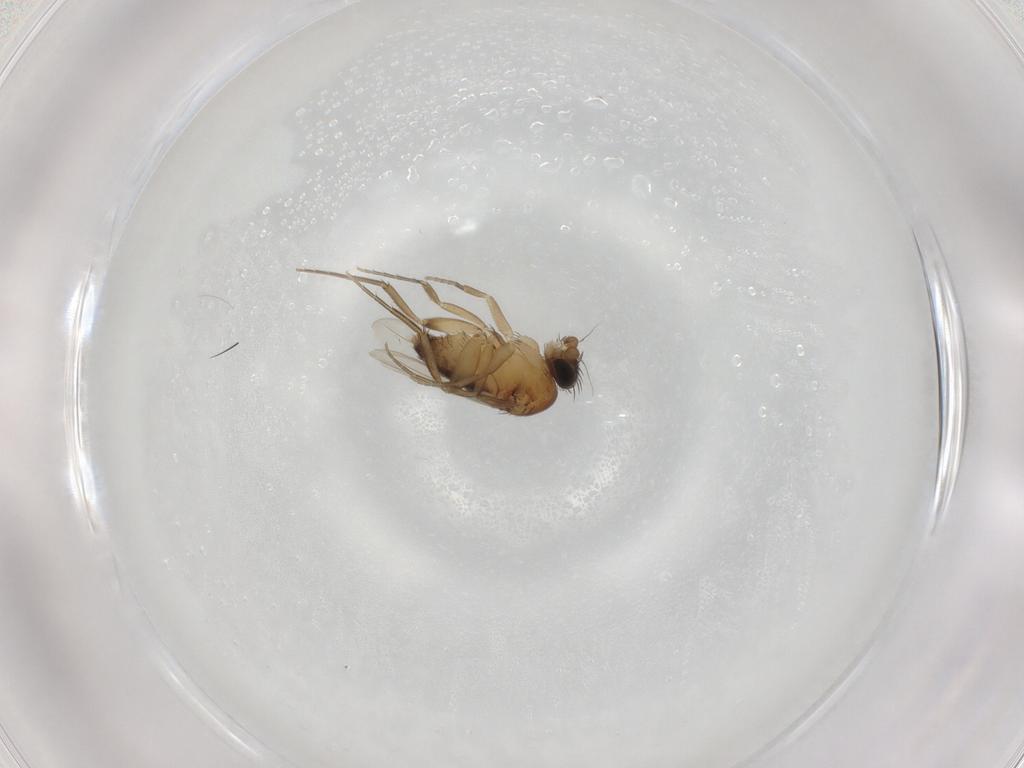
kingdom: Animalia
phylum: Arthropoda
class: Insecta
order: Diptera
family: Phoridae
